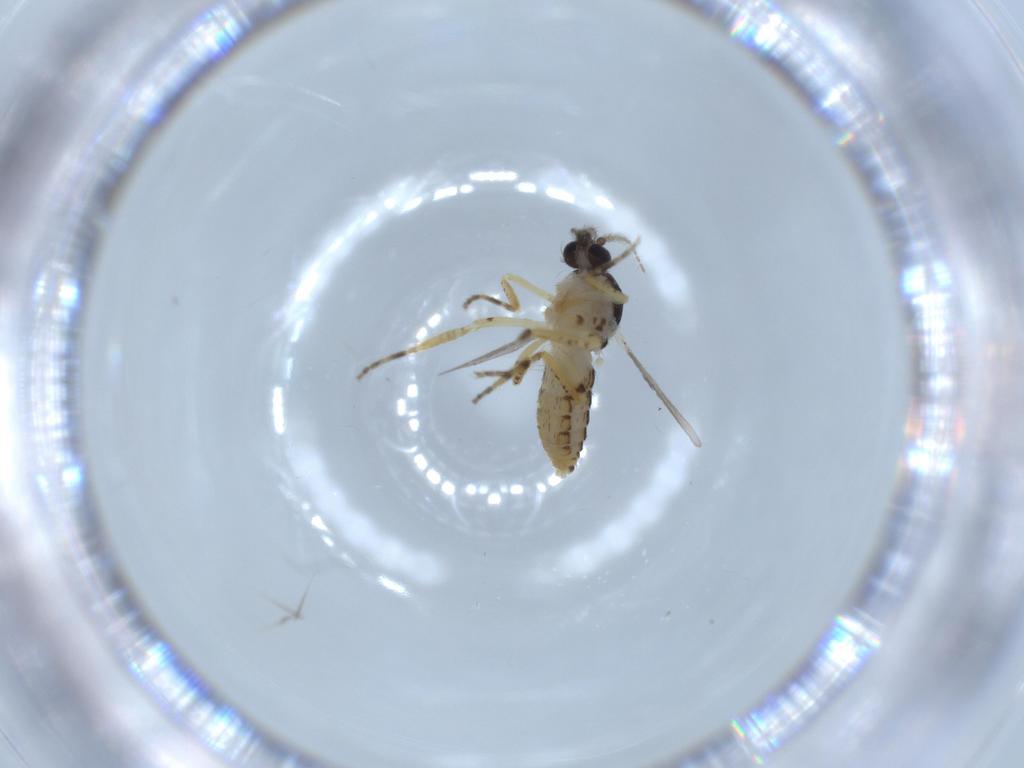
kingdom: Animalia
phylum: Arthropoda
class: Insecta
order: Diptera
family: Ceratopogonidae
